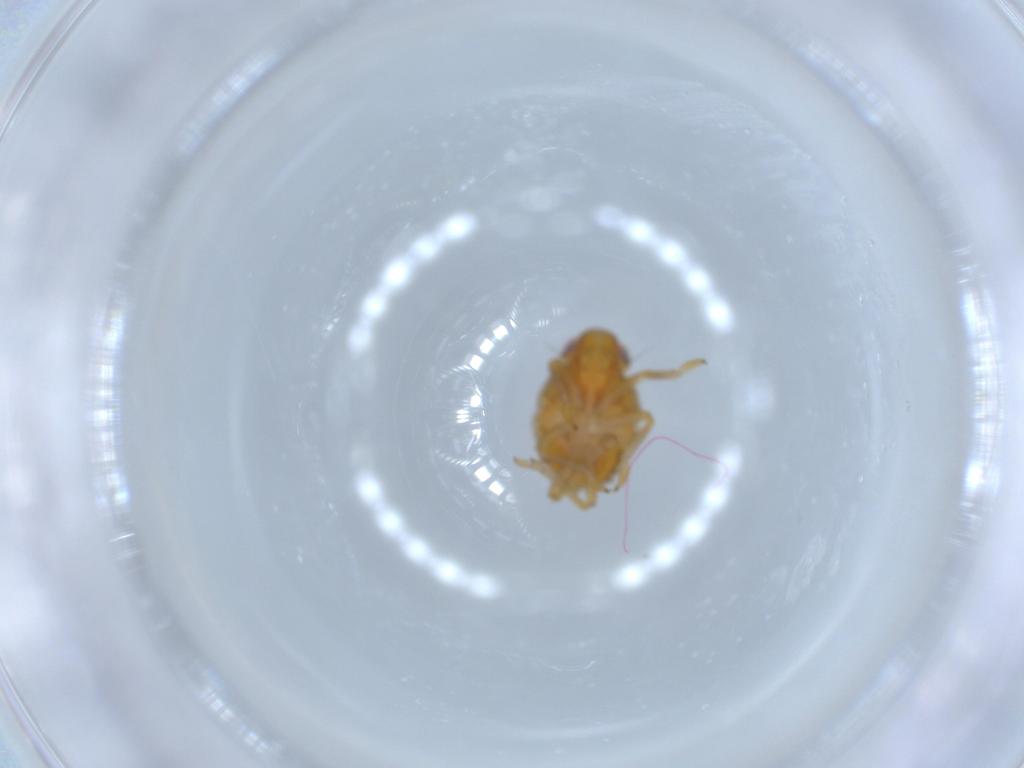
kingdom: Animalia
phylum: Arthropoda
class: Insecta
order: Hemiptera
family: Issidae
